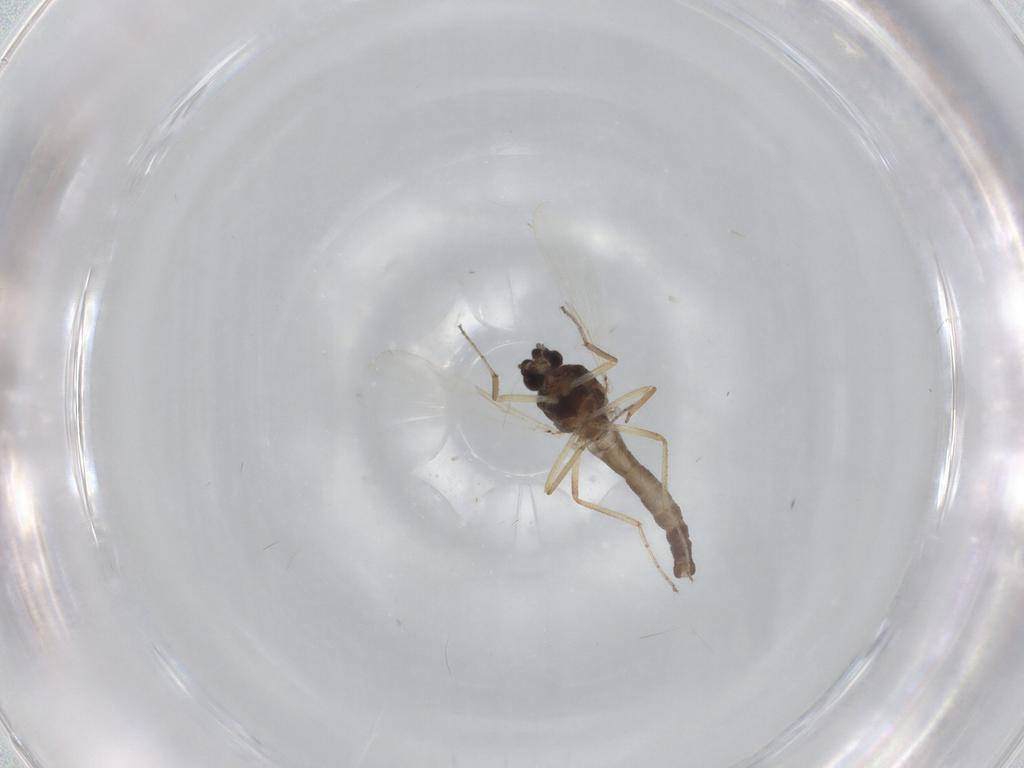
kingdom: Animalia
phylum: Arthropoda
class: Insecta
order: Diptera
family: Ceratopogonidae
